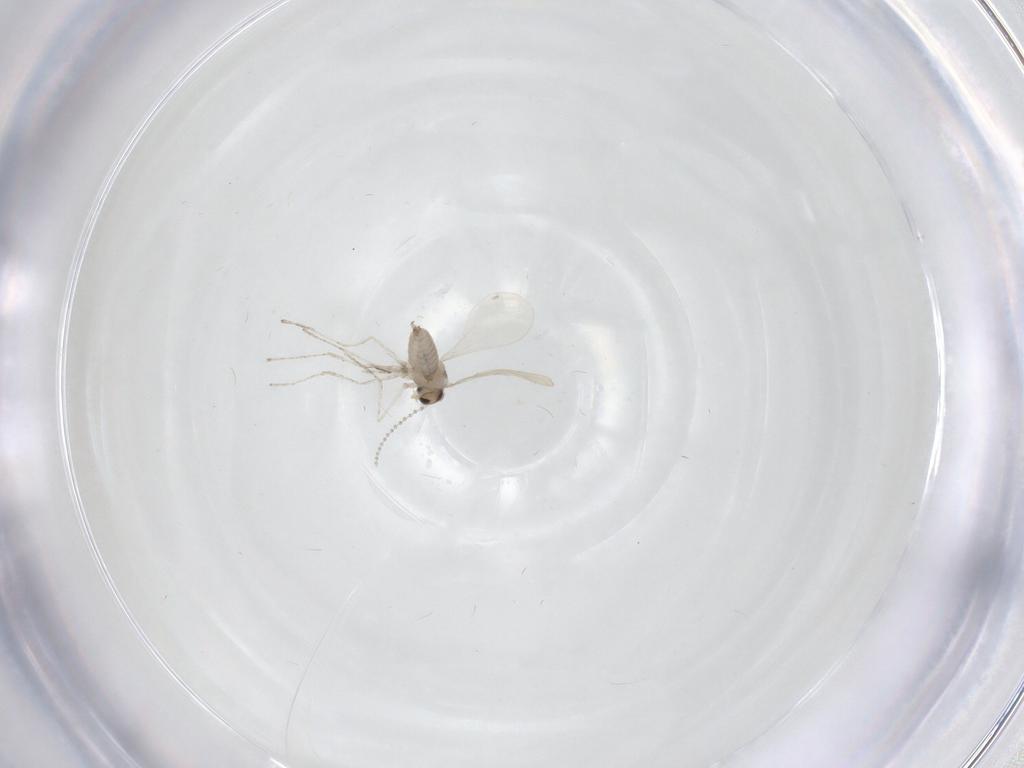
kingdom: Animalia
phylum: Arthropoda
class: Insecta
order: Diptera
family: Cecidomyiidae
